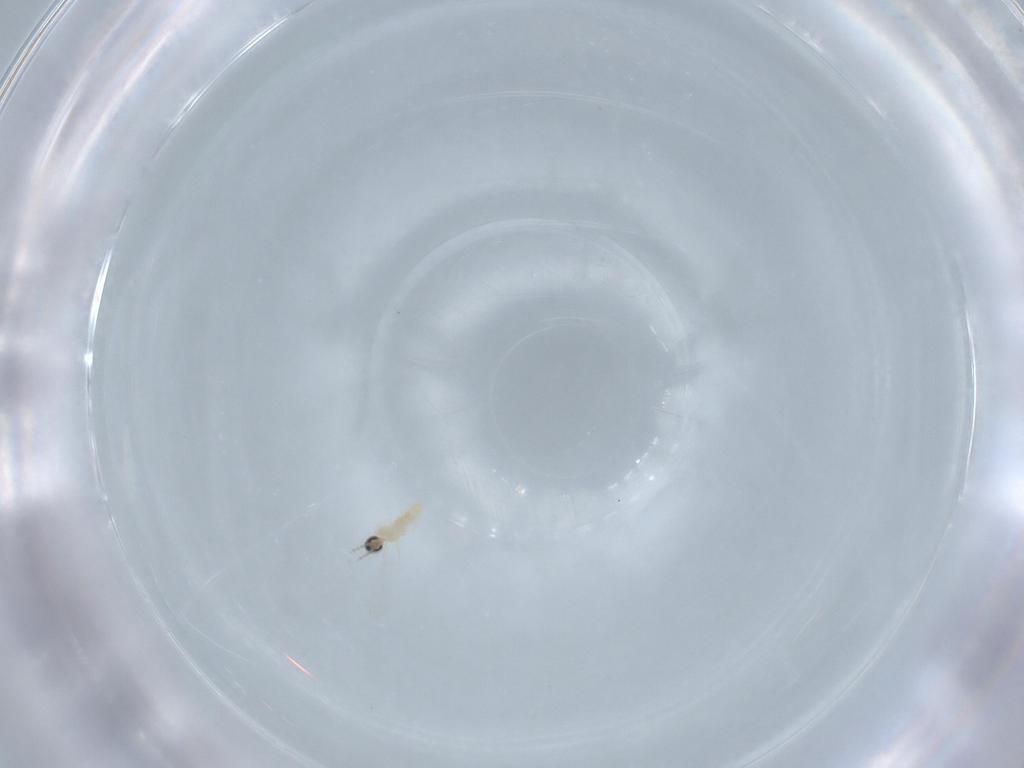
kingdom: Animalia
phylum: Arthropoda
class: Insecta
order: Diptera
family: Cecidomyiidae
